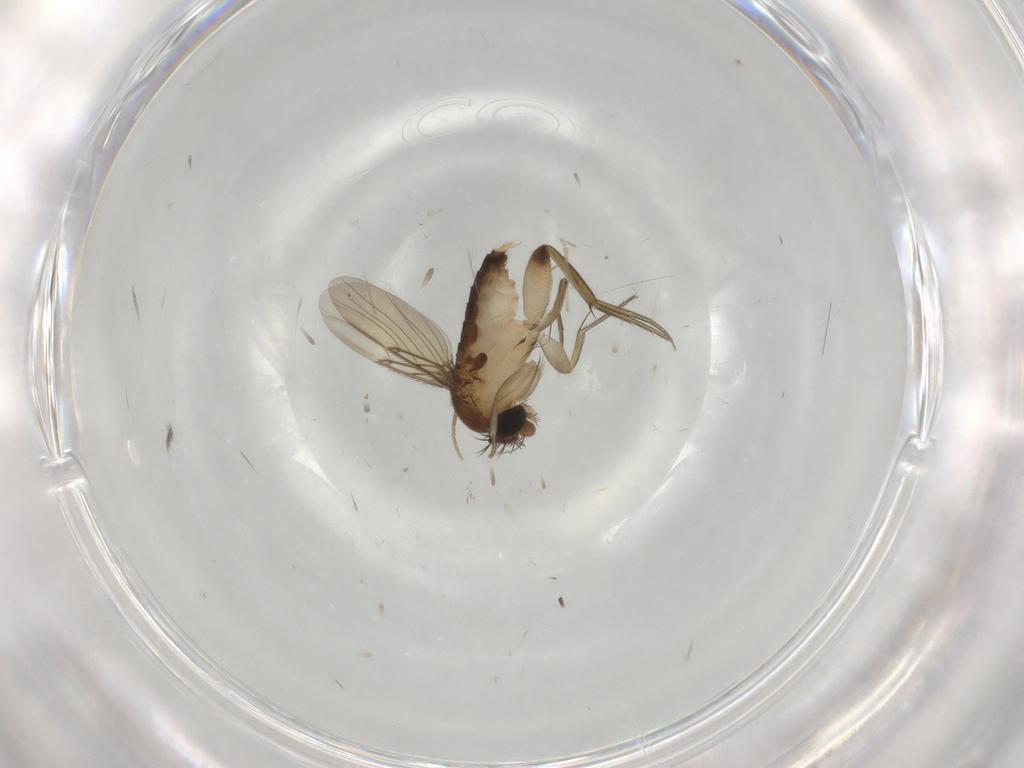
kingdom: Animalia
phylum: Arthropoda
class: Insecta
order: Diptera
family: Phoridae
